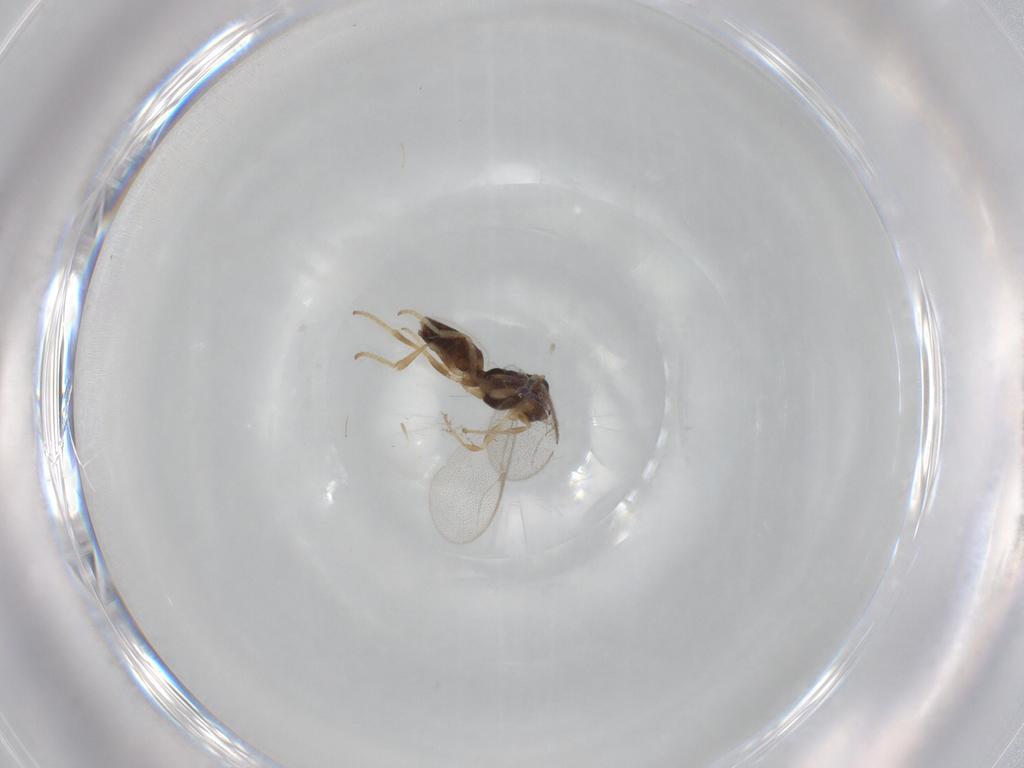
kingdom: Animalia
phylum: Arthropoda
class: Insecta
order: Hymenoptera
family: Dryinidae
